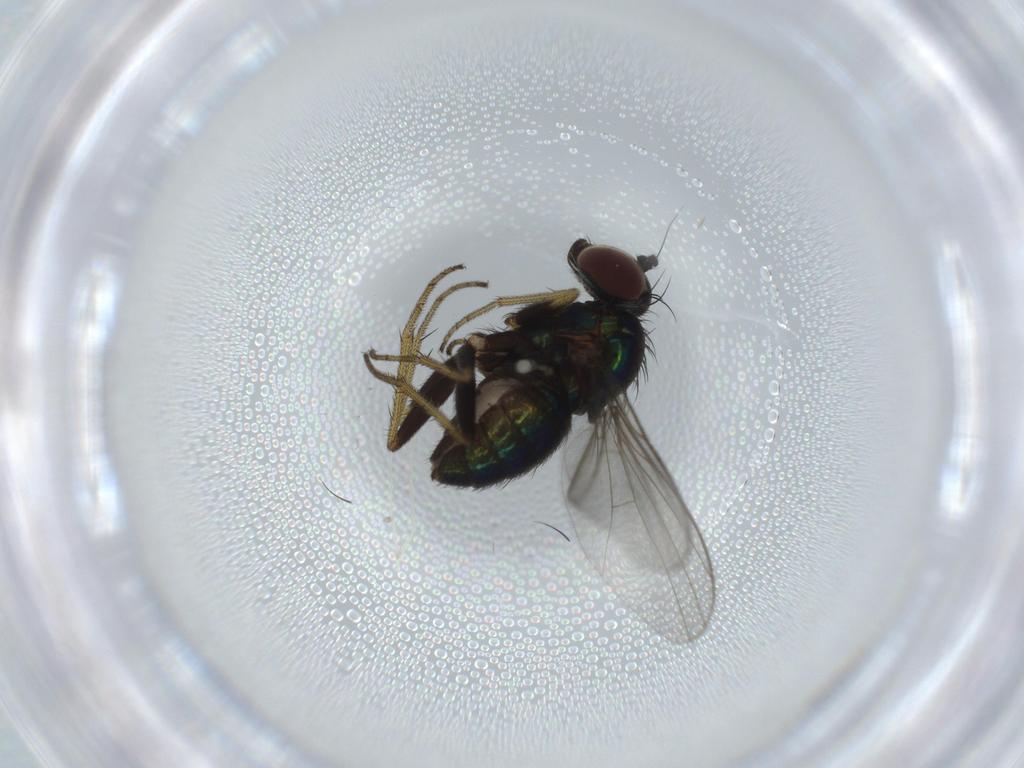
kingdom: Animalia
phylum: Arthropoda
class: Insecta
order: Diptera
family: Dolichopodidae
